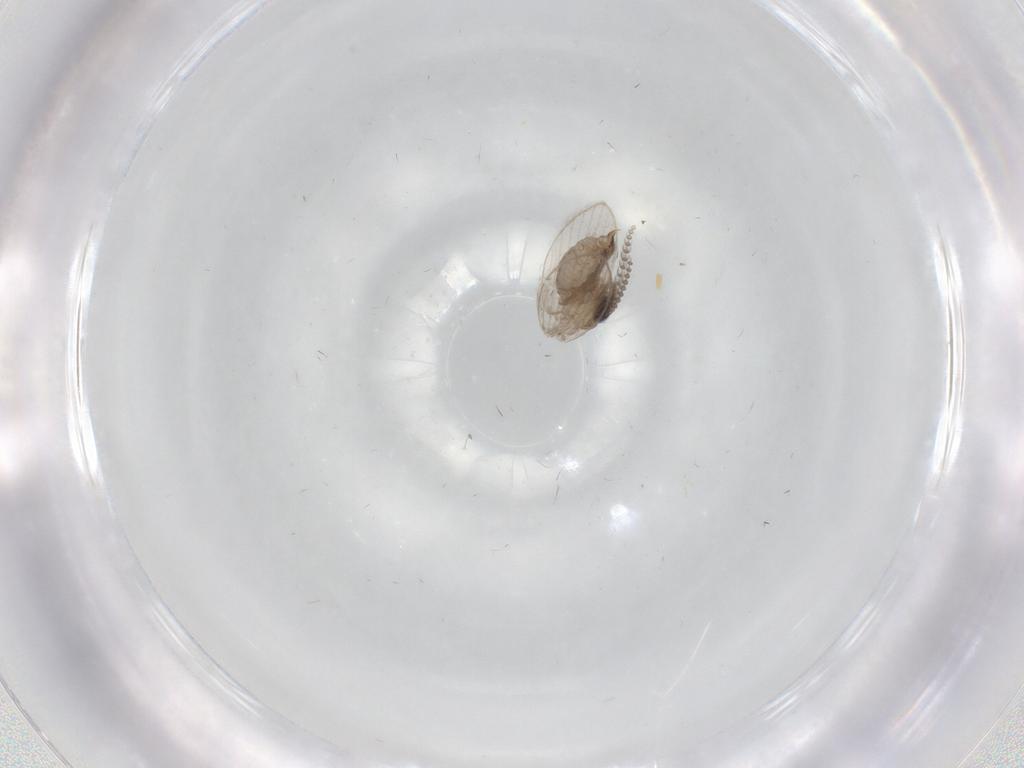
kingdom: Animalia
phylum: Arthropoda
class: Insecta
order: Diptera
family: Psychodidae
